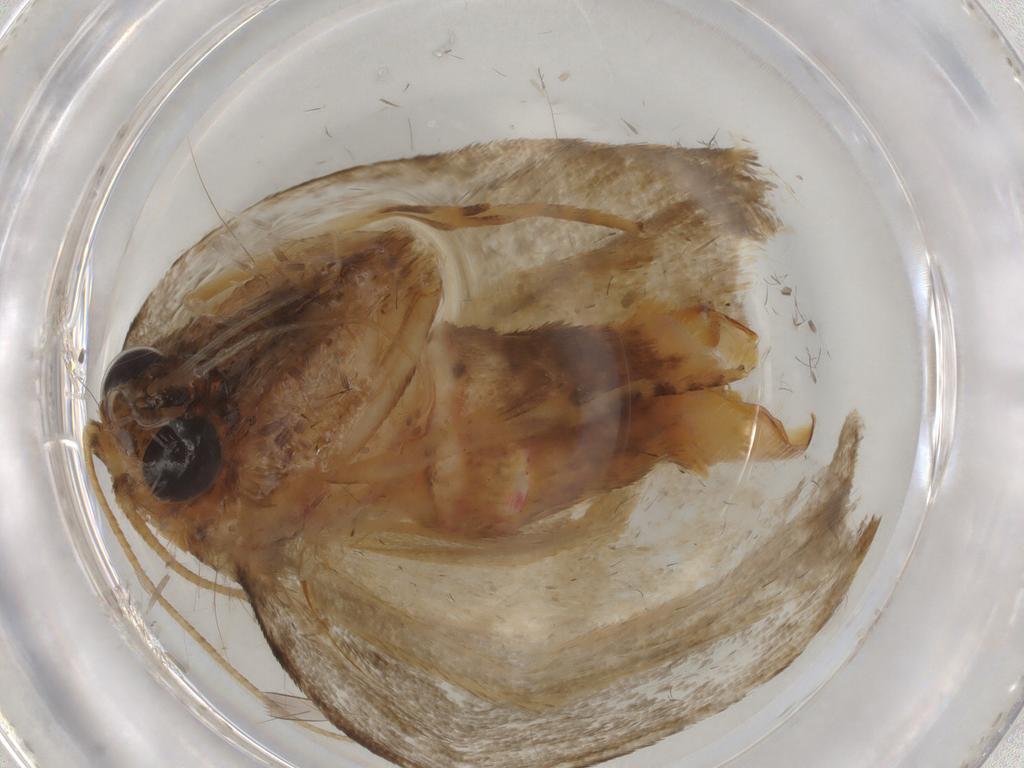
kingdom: Animalia
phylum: Arthropoda
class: Insecta
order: Lepidoptera
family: Erebidae
